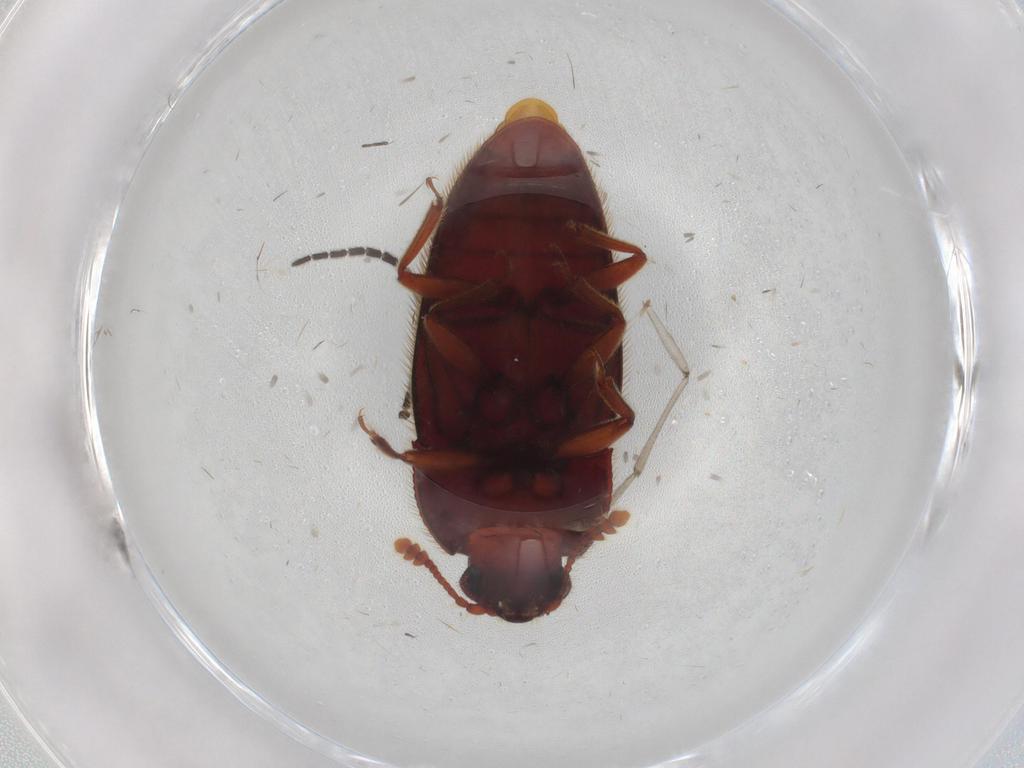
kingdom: Animalia
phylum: Arthropoda
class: Insecta
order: Coleoptera
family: Biphyllidae
